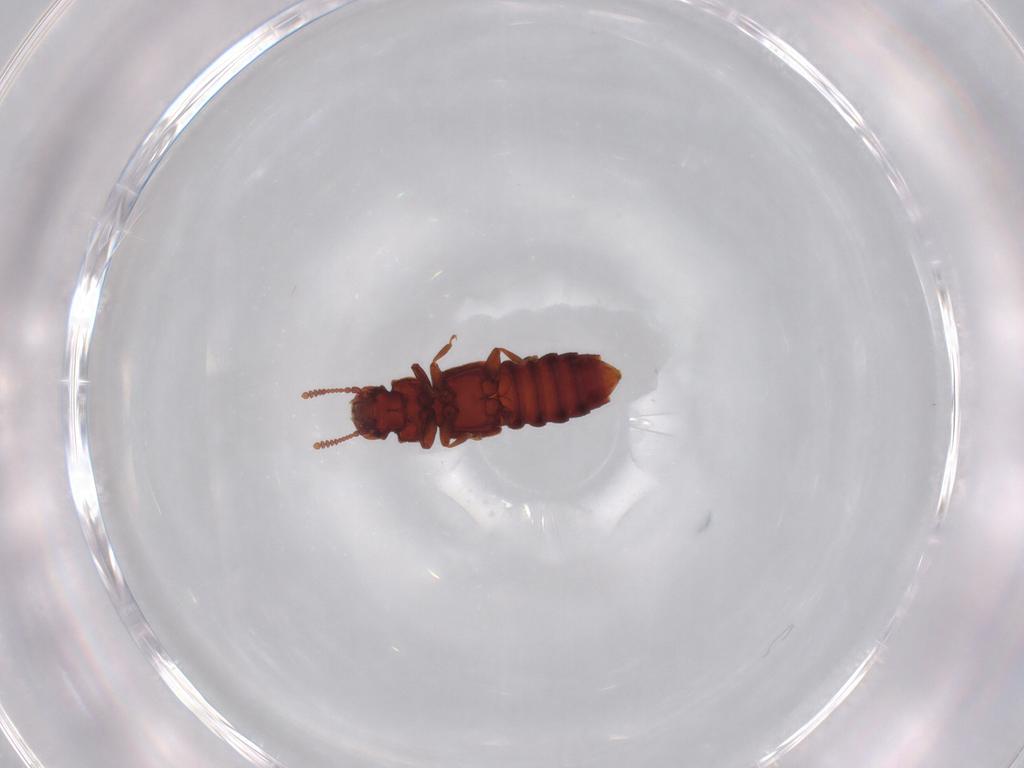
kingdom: Animalia
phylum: Arthropoda
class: Insecta
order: Coleoptera
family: Staphylinidae
